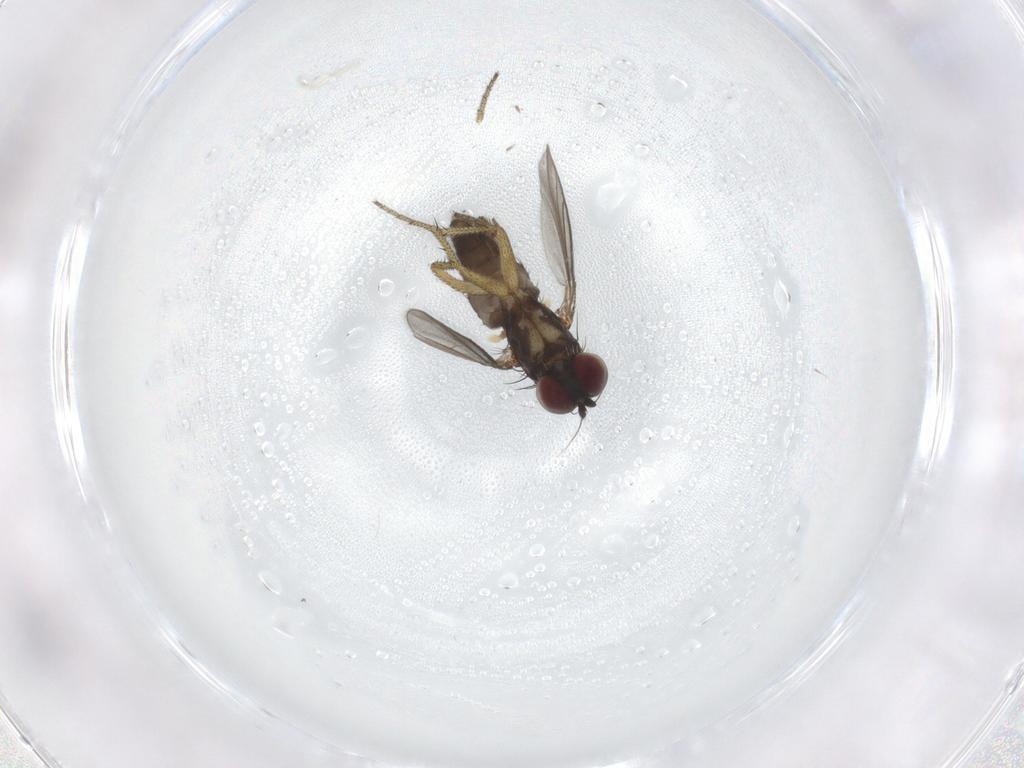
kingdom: Animalia
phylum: Arthropoda
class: Insecta
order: Diptera
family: Dolichopodidae
